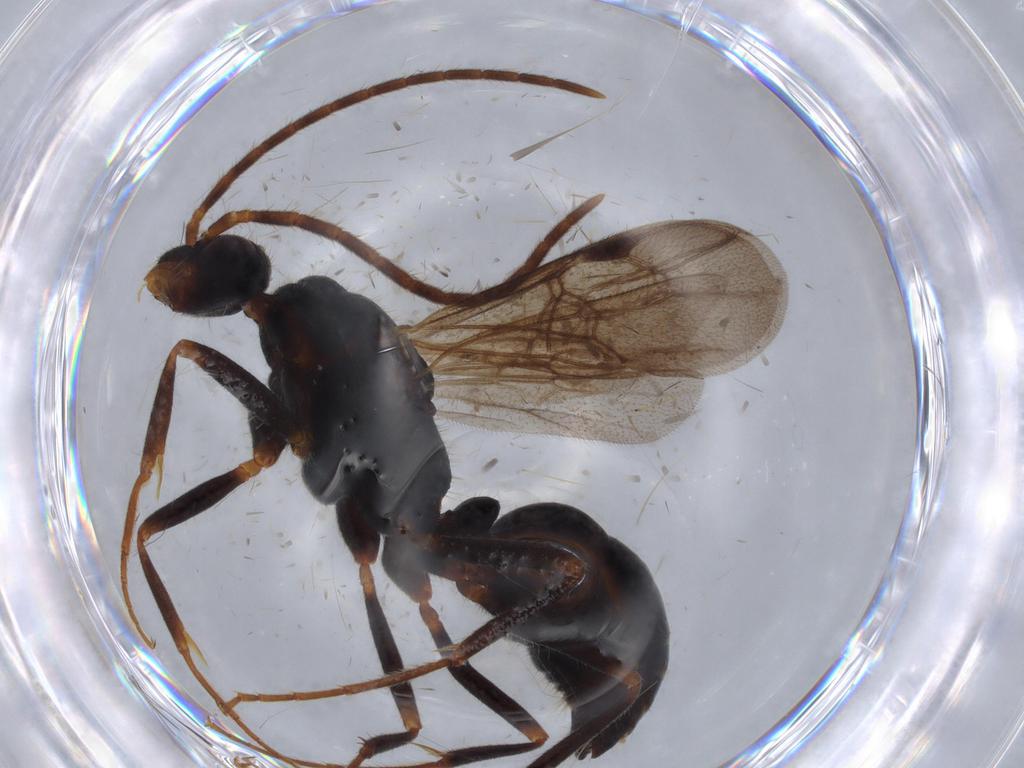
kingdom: Animalia
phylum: Arthropoda
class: Insecta
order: Hymenoptera
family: Formicidae
